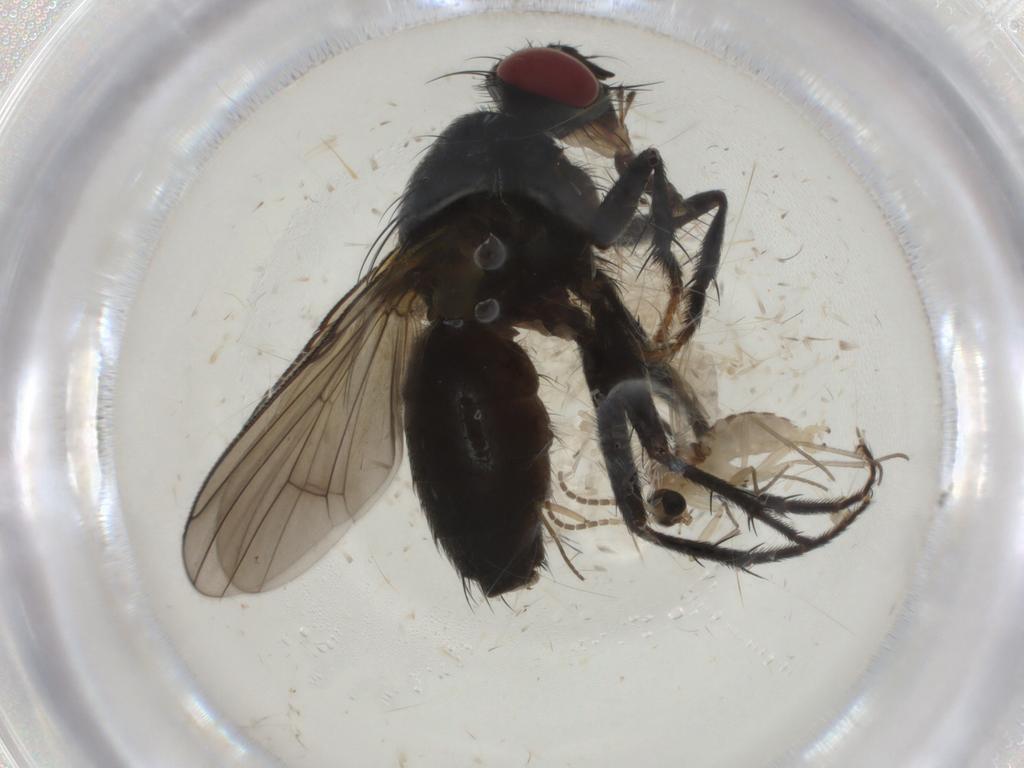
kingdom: Animalia
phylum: Arthropoda
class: Insecta
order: Diptera
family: Muscidae
